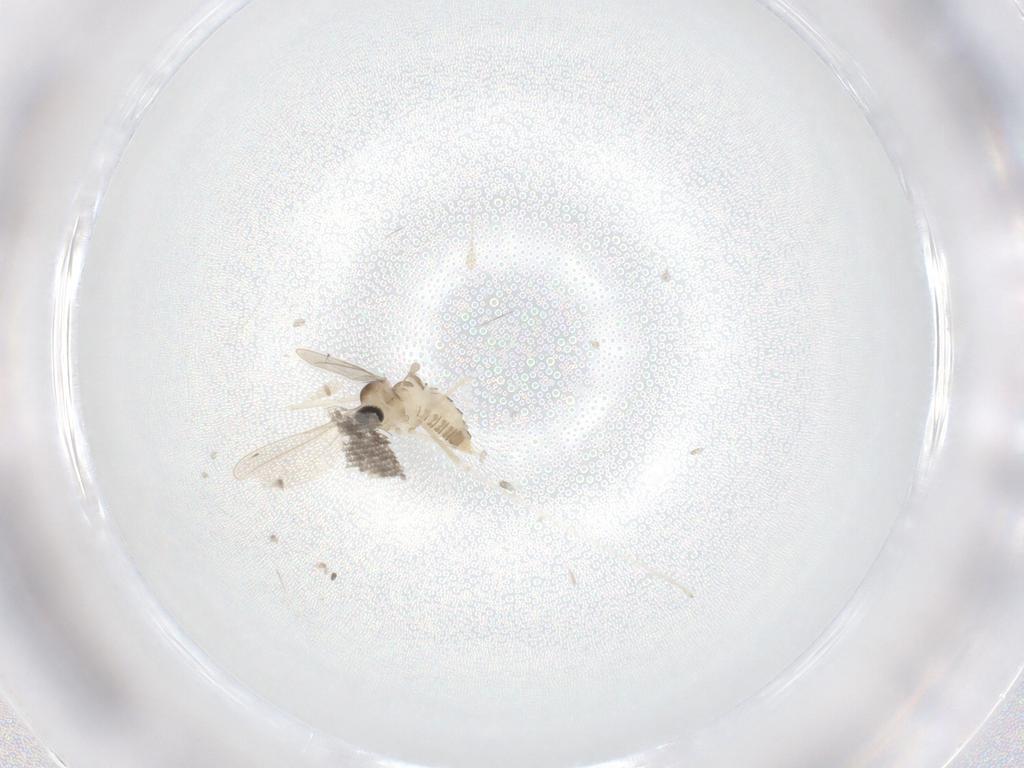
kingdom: Animalia
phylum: Arthropoda
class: Insecta
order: Diptera
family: Cecidomyiidae
